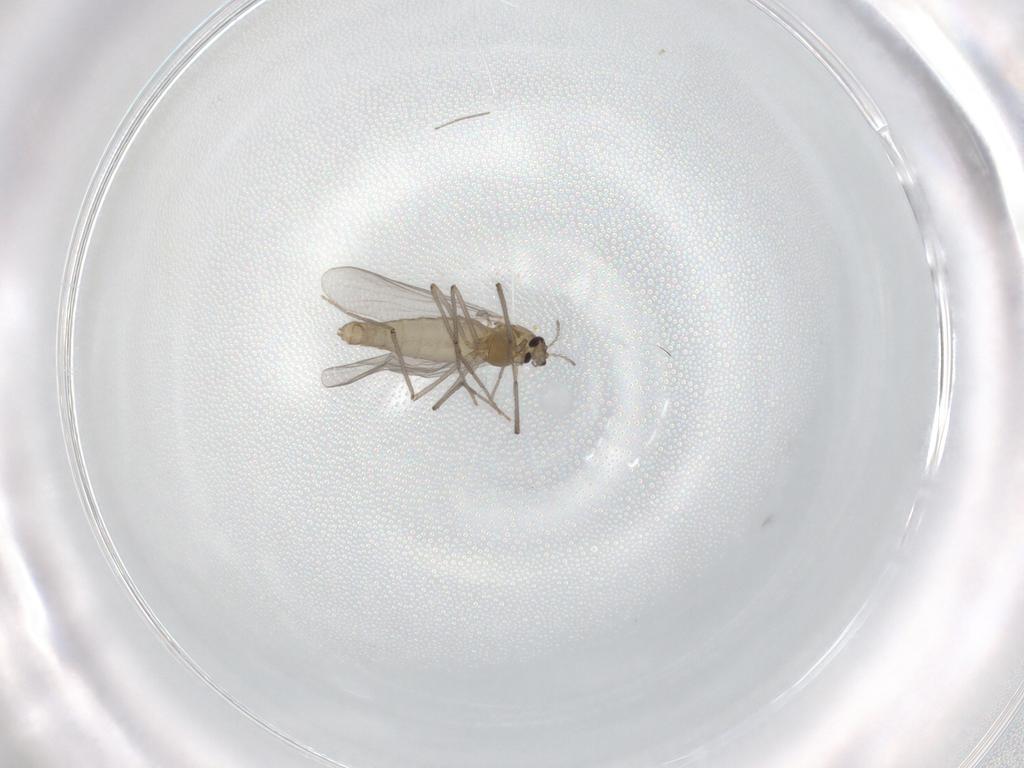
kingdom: Animalia
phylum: Arthropoda
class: Insecta
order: Diptera
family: Chironomidae
